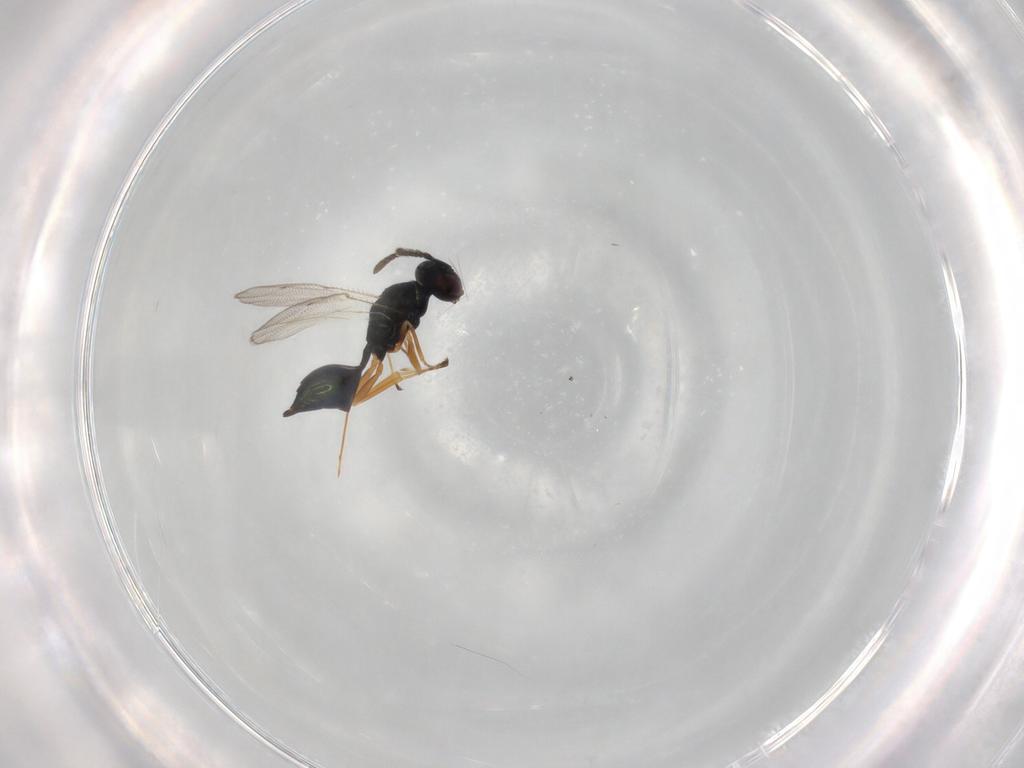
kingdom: Animalia
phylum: Arthropoda
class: Insecta
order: Hymenoptera
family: Pteromalidae
